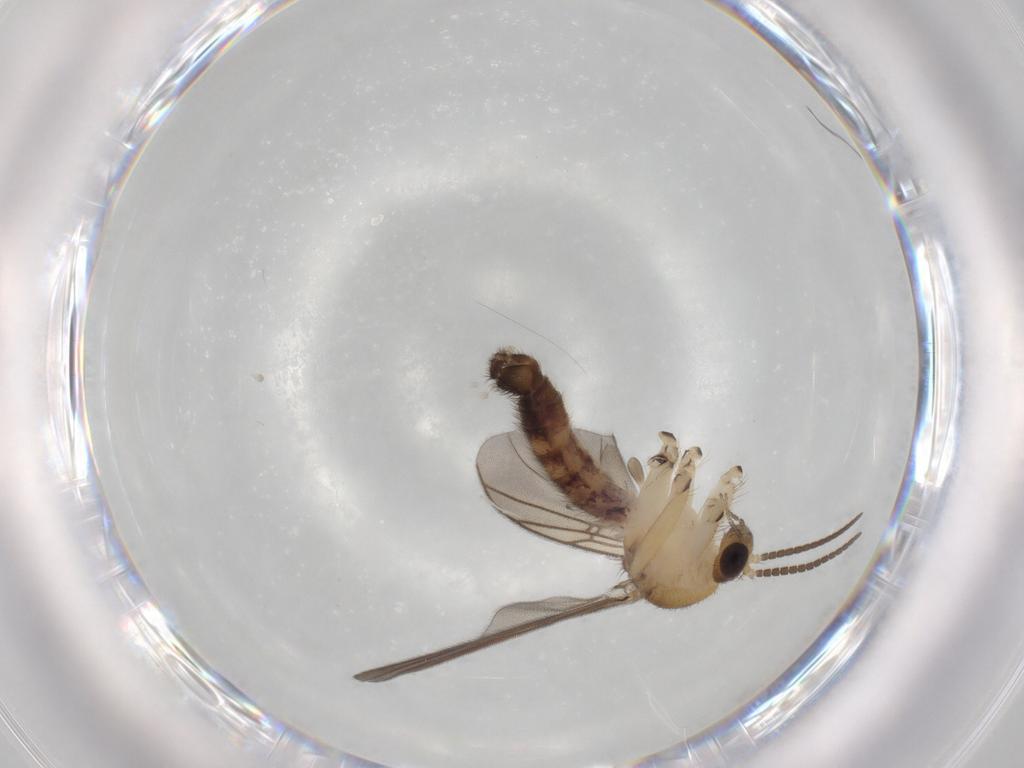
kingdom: Animalia
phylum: Arthropoda
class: Insecta
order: Diptera
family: Mycetophilidae
